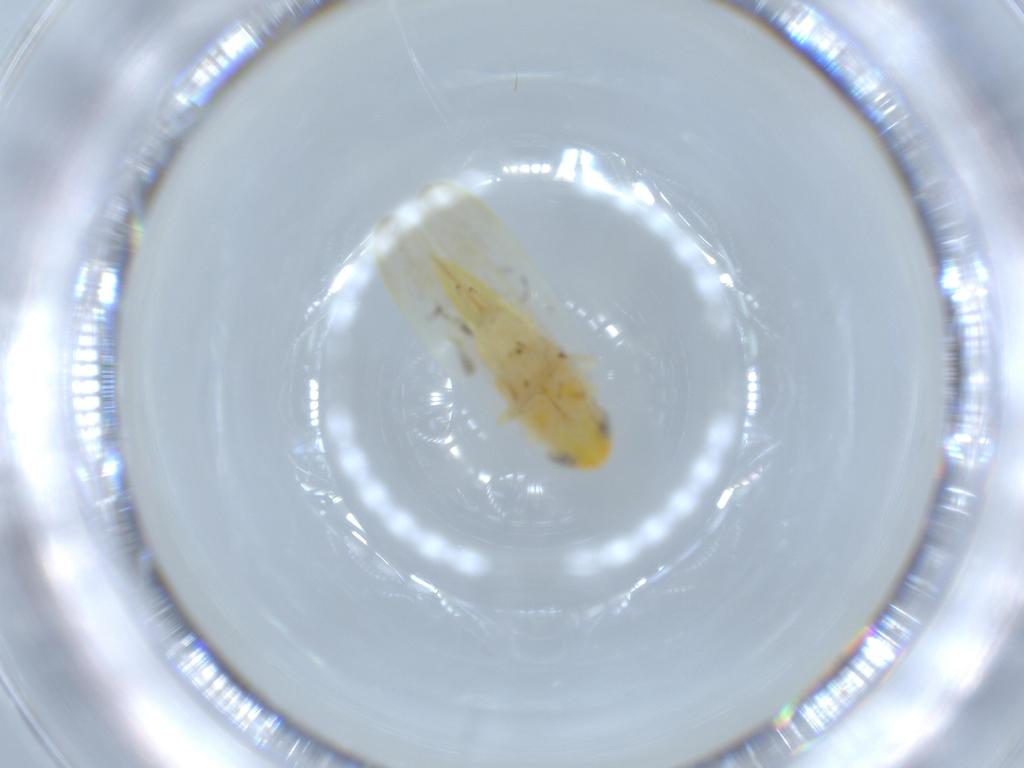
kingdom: Animalia
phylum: Arthropoda
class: Insecta
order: Hemiptera
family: Cicadellidae
